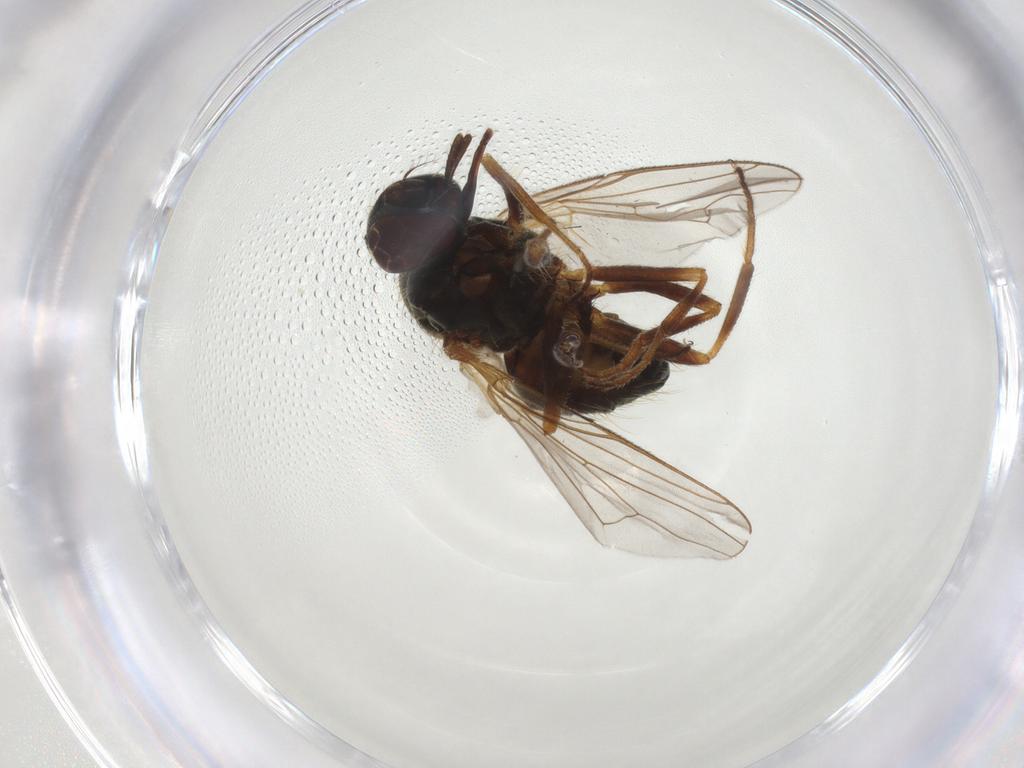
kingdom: Animalia
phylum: Arthropoda
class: Insecta
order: Diptera
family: Muscidae
